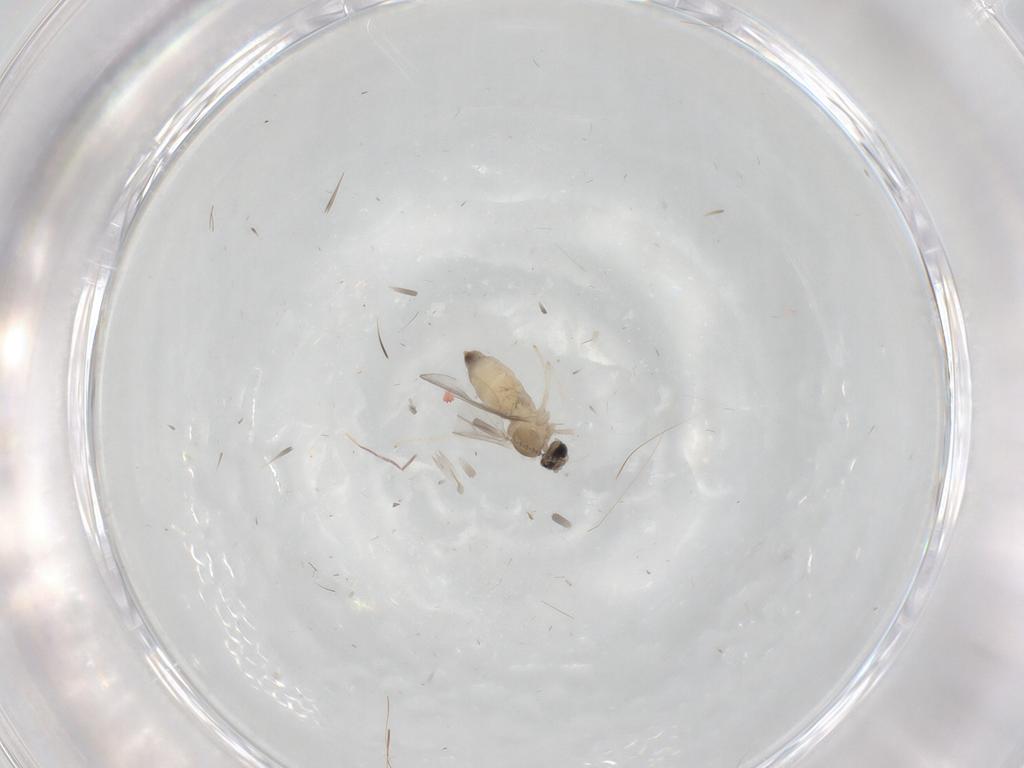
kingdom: Animalia
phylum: Arthropoda
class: Insecta
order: Diptera
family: Cecidomyiidae
